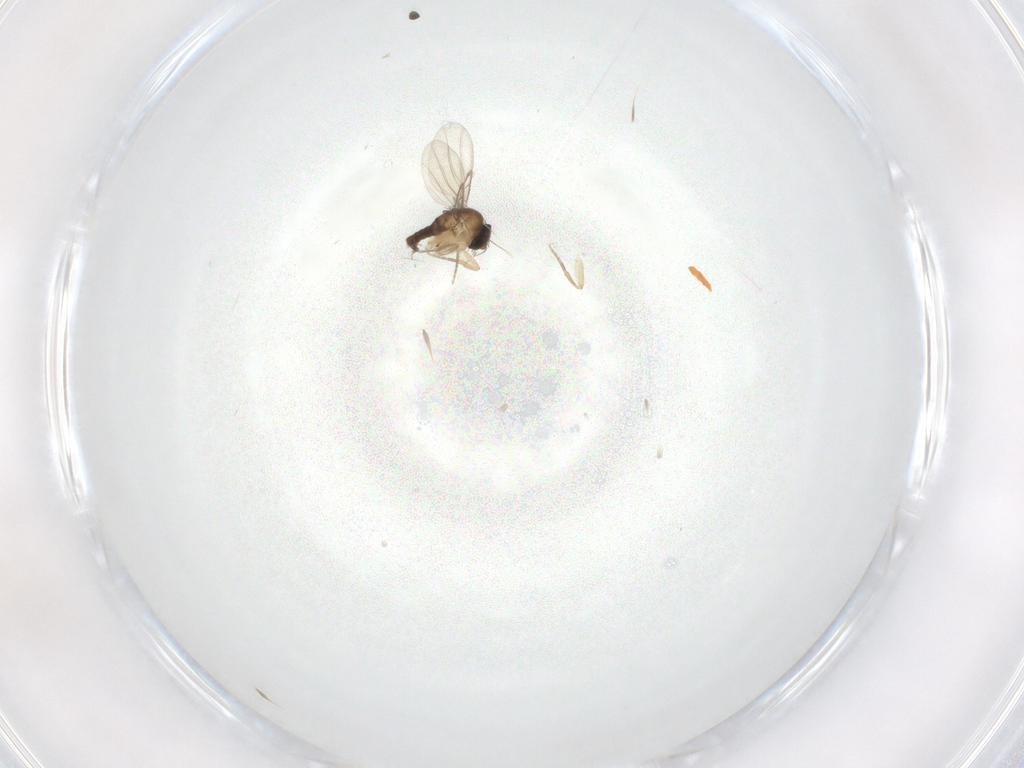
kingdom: Animalia
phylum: Arthropoda
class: Insecta
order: Diptera
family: Phoridae
